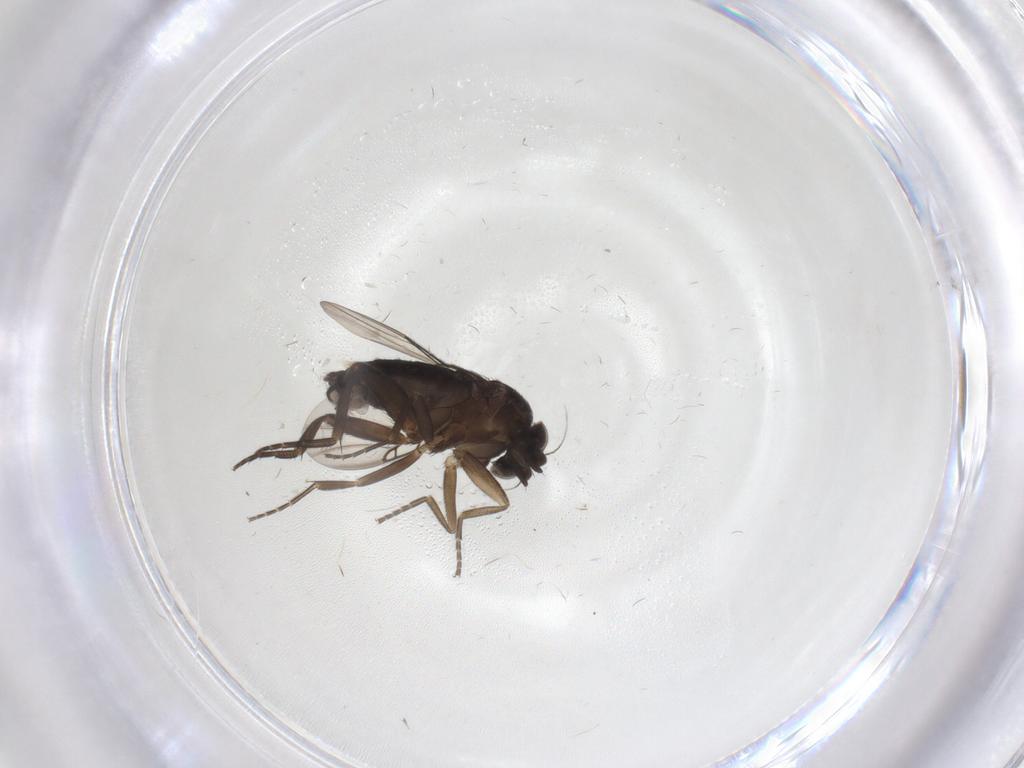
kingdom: Animalia
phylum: Arthropoda
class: Insecta
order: Diptera
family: Phoridae
